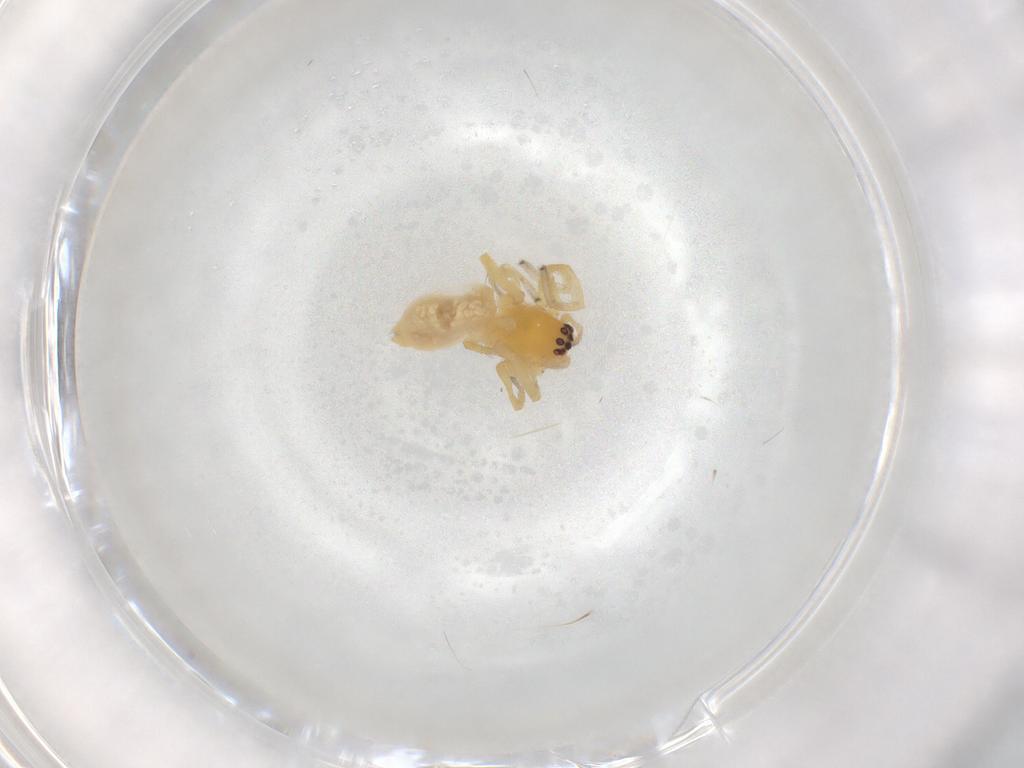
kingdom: Animalia
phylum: Arthropoda
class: Arachnida
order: Araneae
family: Cheiracanthiidae
